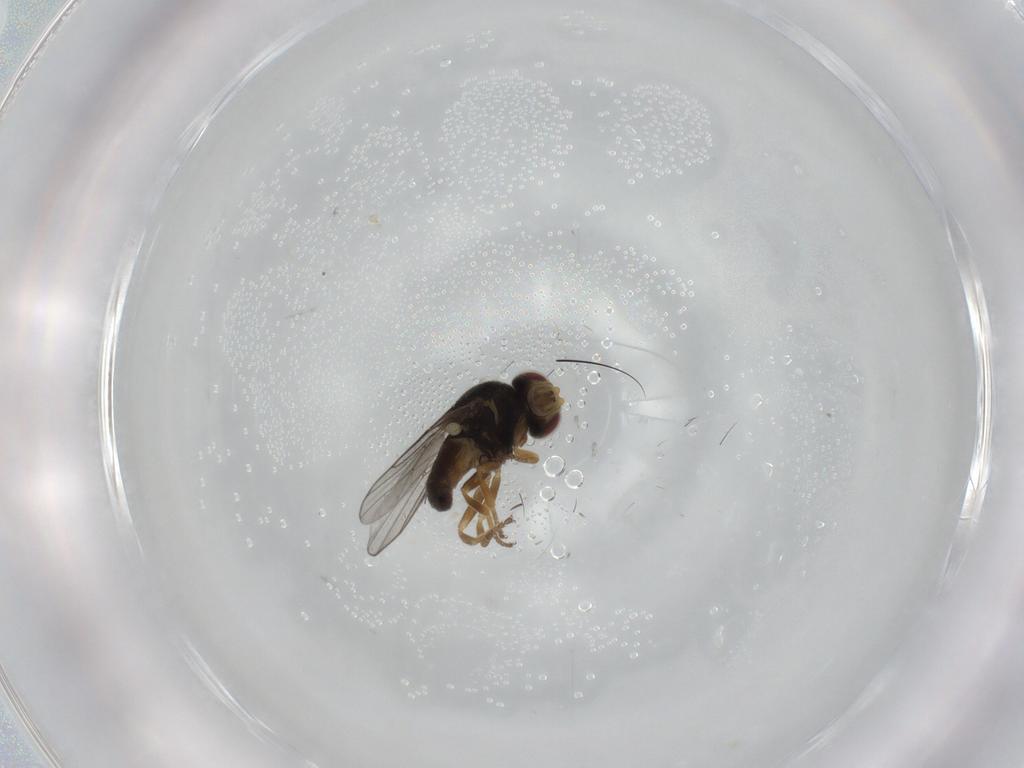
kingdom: Animalia
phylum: Arthropoda
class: Insecta
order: Diptera
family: Chloropidae
